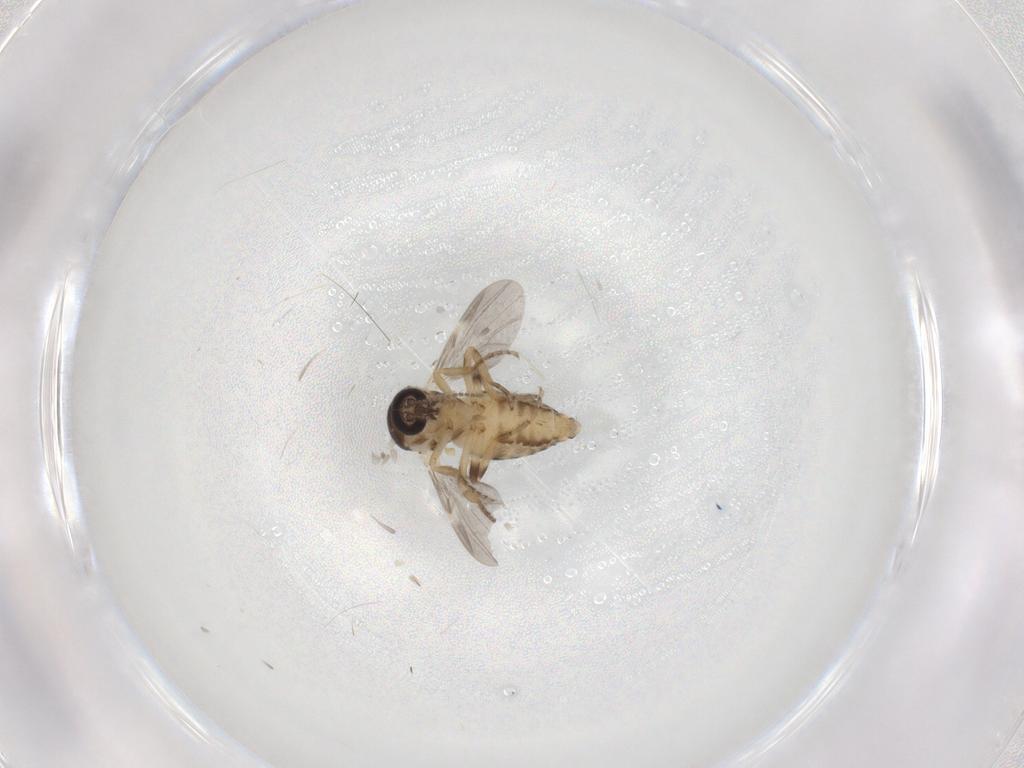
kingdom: Animalia
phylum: Arthropoda
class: Insecta
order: Diptera
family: Ceratopogonidae
